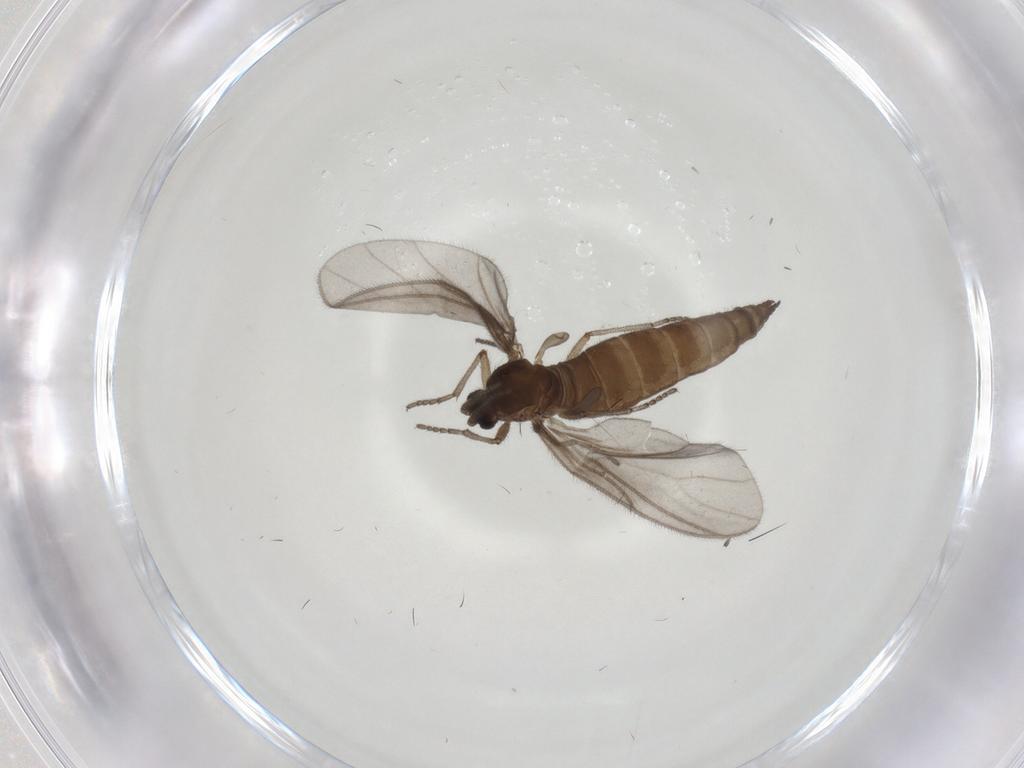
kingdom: Animalia
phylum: Arthropoda
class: Insecta
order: Diptera
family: Sciaridae
